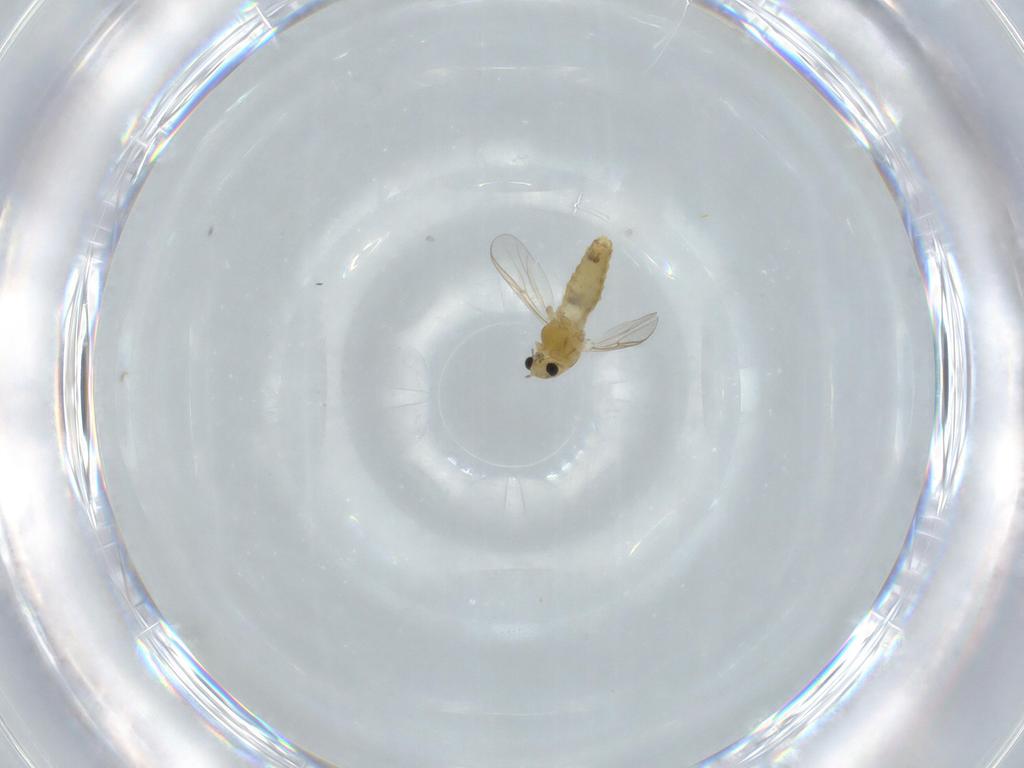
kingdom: Animalia
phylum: Arthropoda
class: Insecta
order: Diptera
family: Chironomidae
